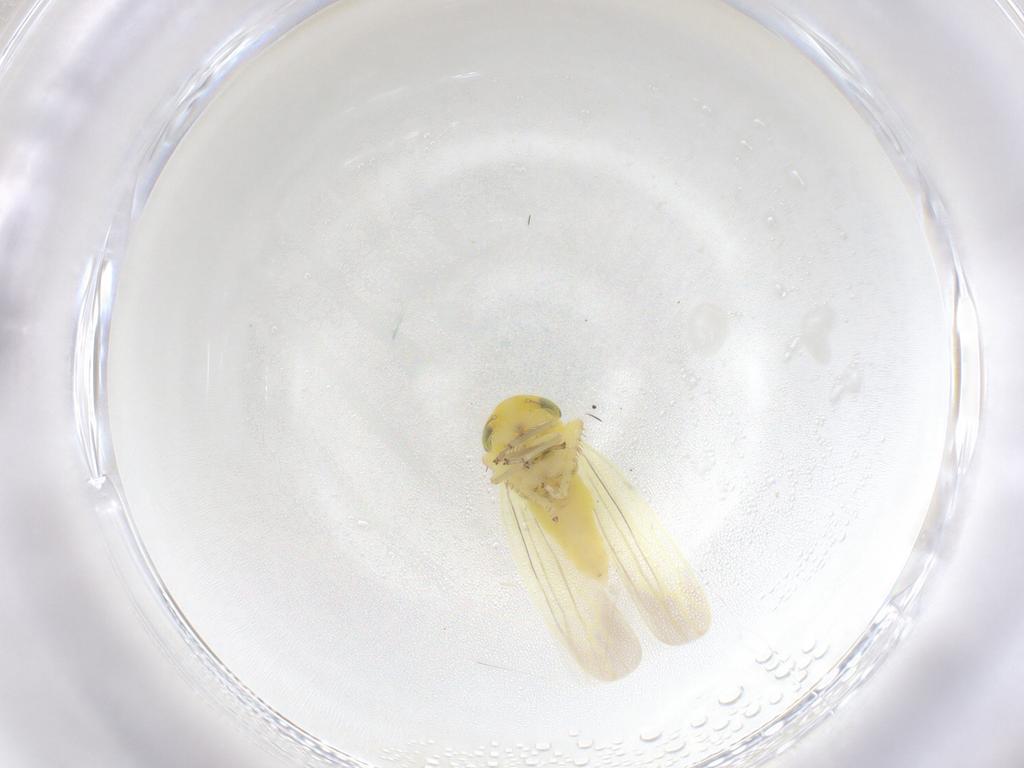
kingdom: Animalia
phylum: Arthropoda
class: Insecta
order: Hemiptera
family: Cicadellidae
